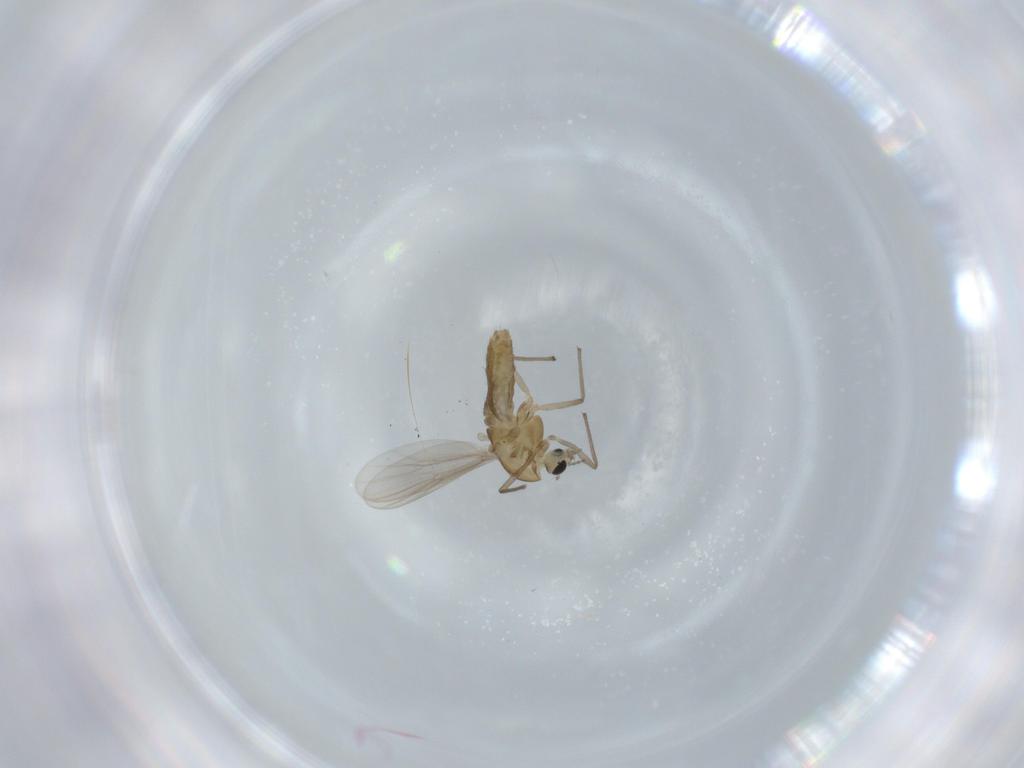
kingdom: Animalia
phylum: Arthropoda
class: Insecta
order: Diptera
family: Chironomidae
